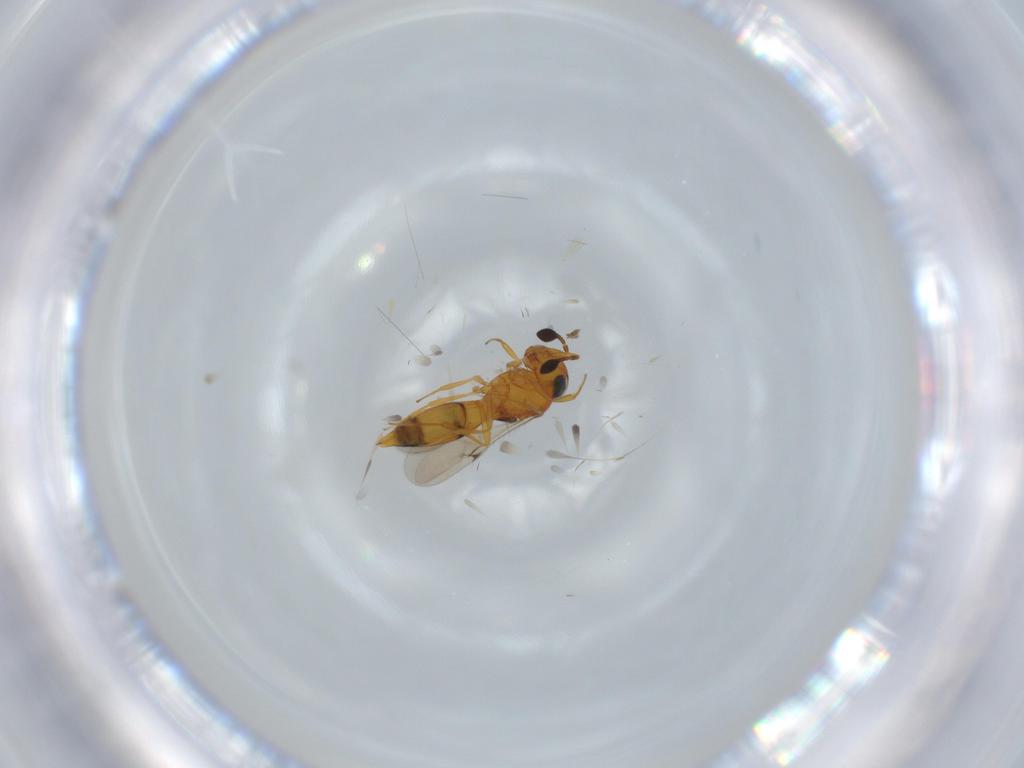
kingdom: Animalia
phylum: Arthropoda
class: Insecta
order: Hymenoptera
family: Scelionidae
